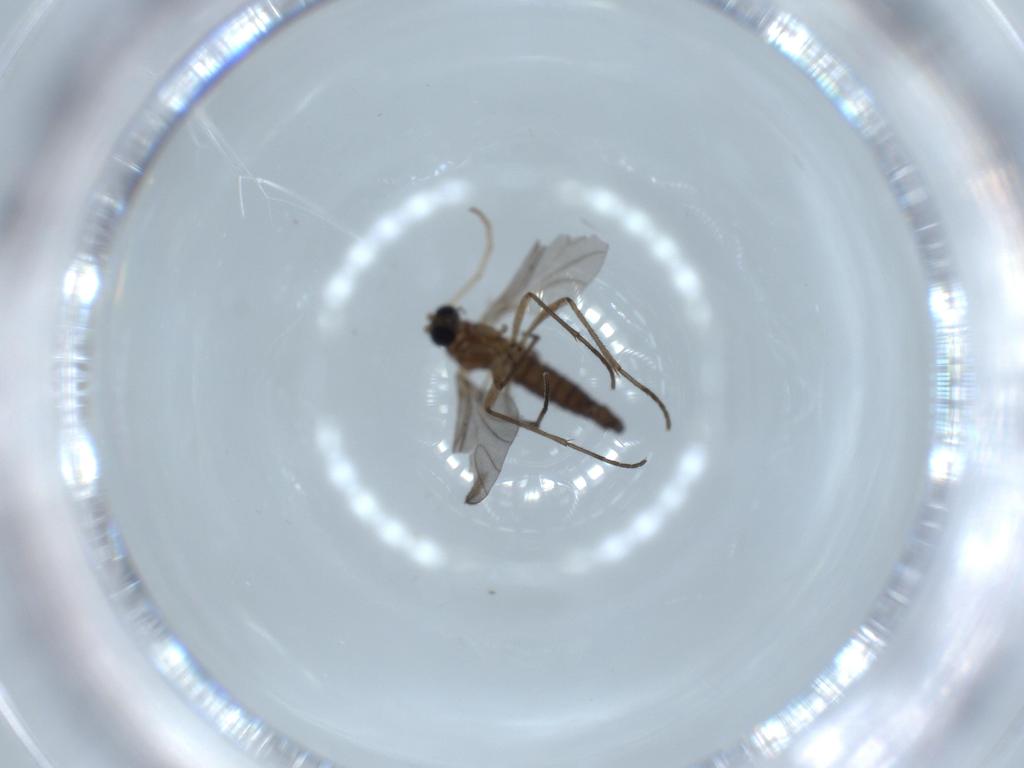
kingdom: Animalia
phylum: Arthropoda
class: Insecta
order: Diptera
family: Sciaridae
